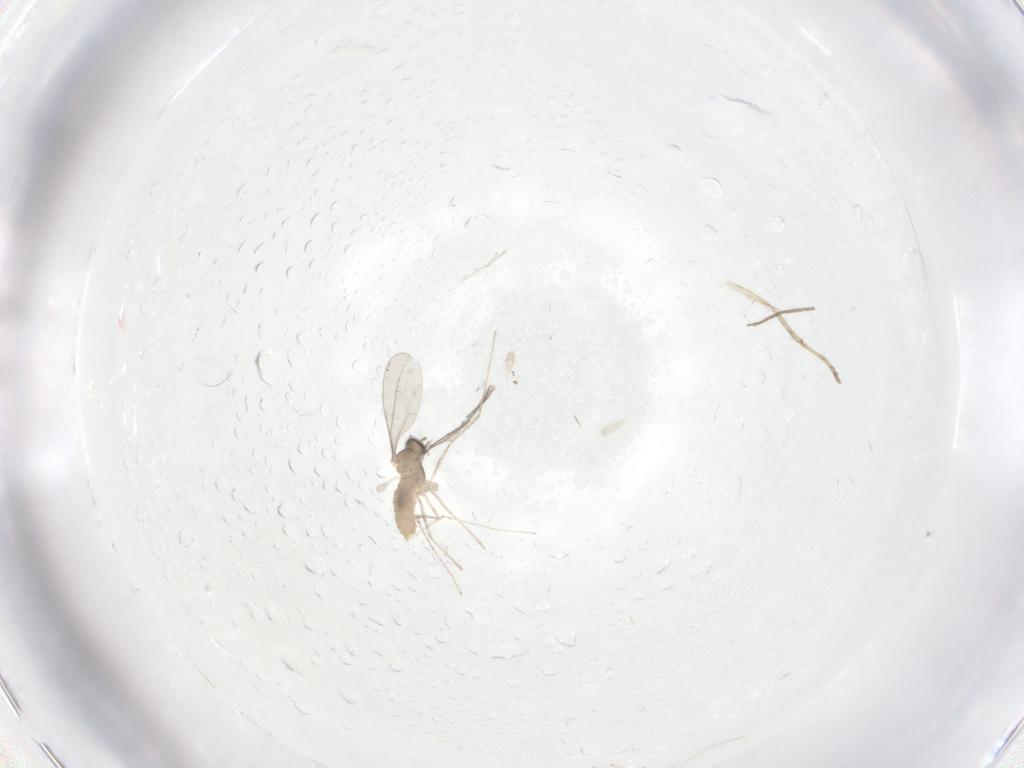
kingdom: Animalia
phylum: Arthropoda
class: Insecta
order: Diptera
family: Cecidomyiidae
